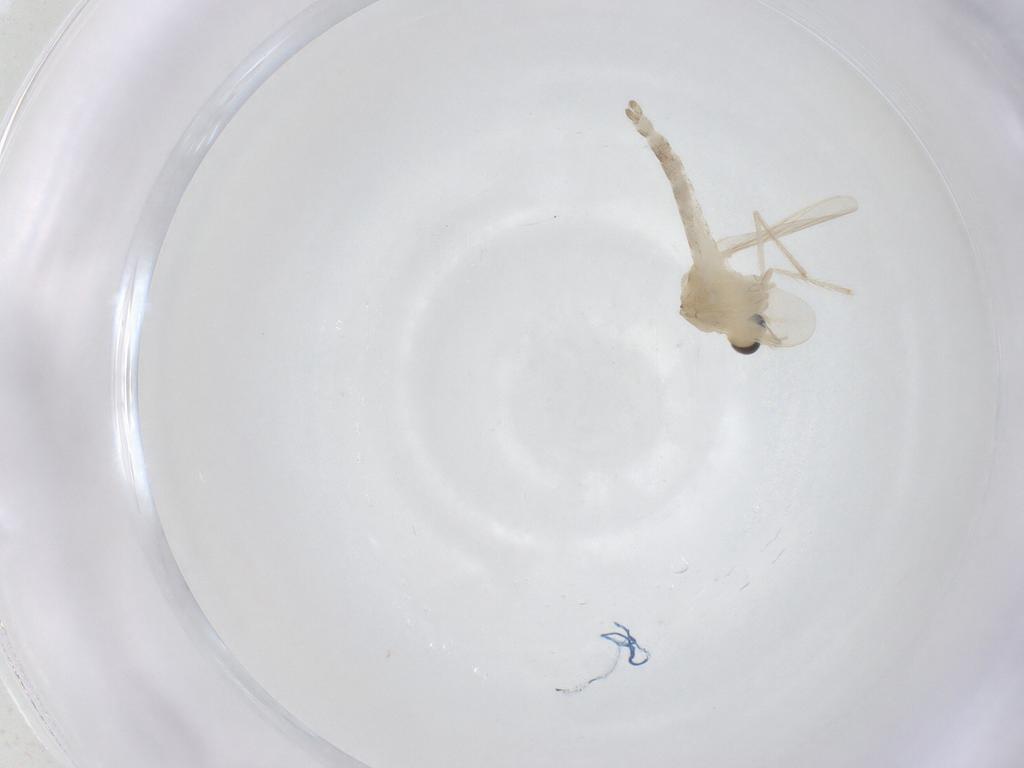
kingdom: Animalia
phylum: Arthropoda
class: Insecta
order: Diptera
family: Chironomidae
